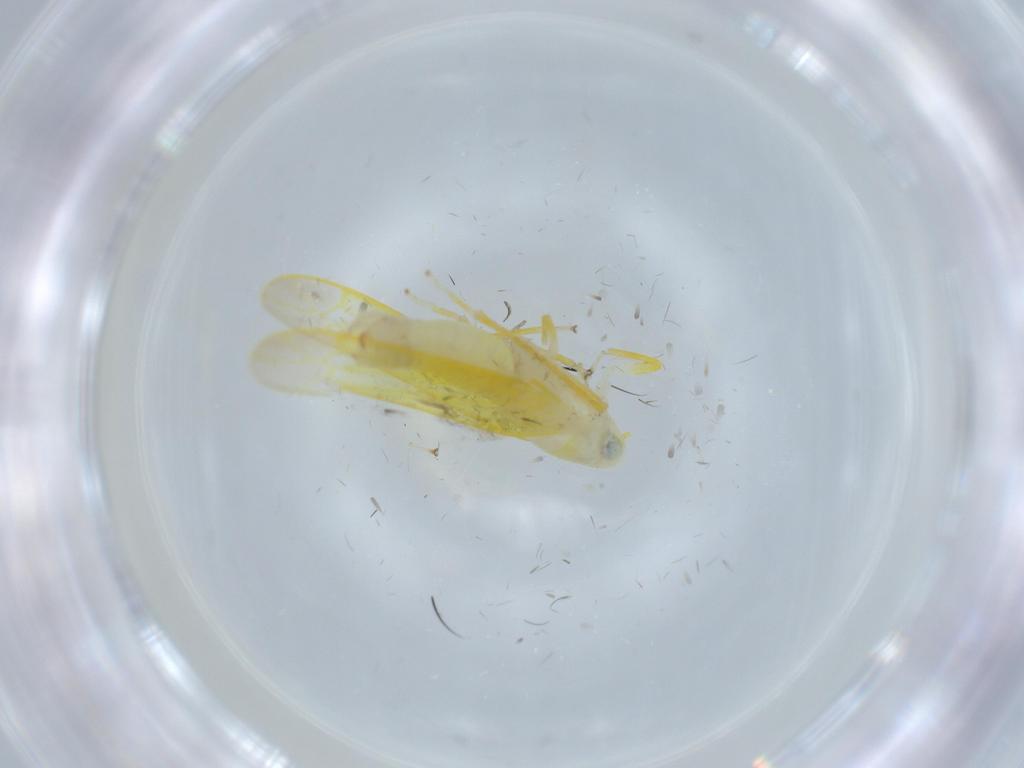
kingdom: Animalia
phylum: Arthropoda
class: Insecta
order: Hemiptera
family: Cicadellidae
